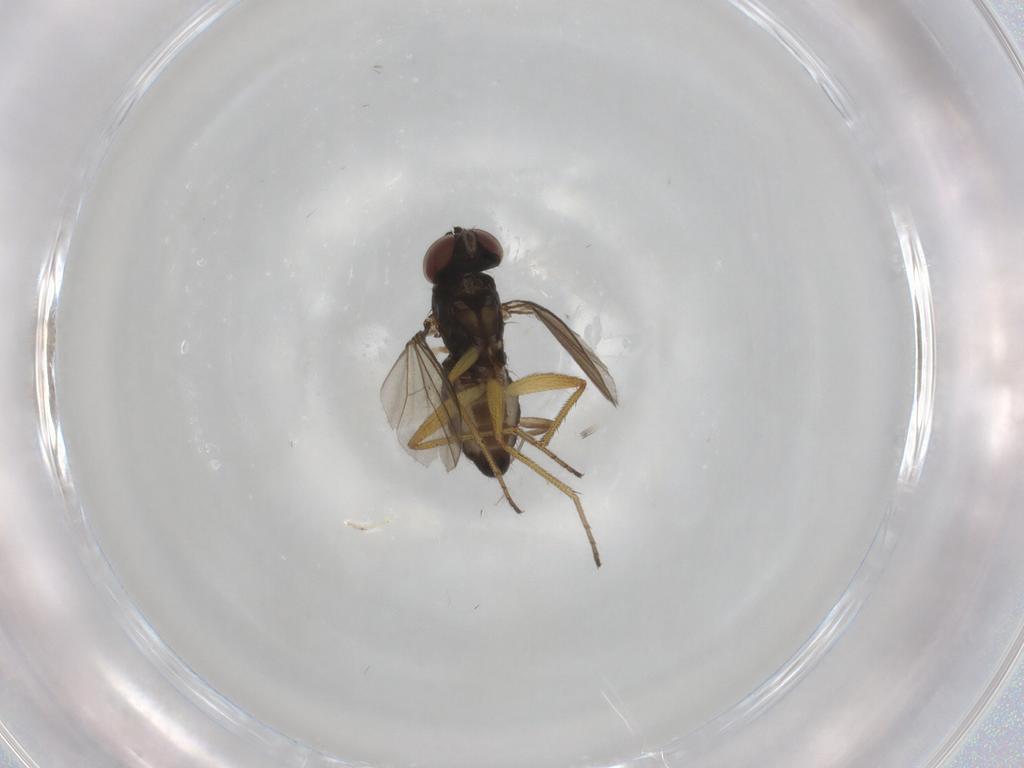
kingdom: Animalia
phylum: Arthropoda
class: Insecta
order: Diptera
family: Dolichopodidae
